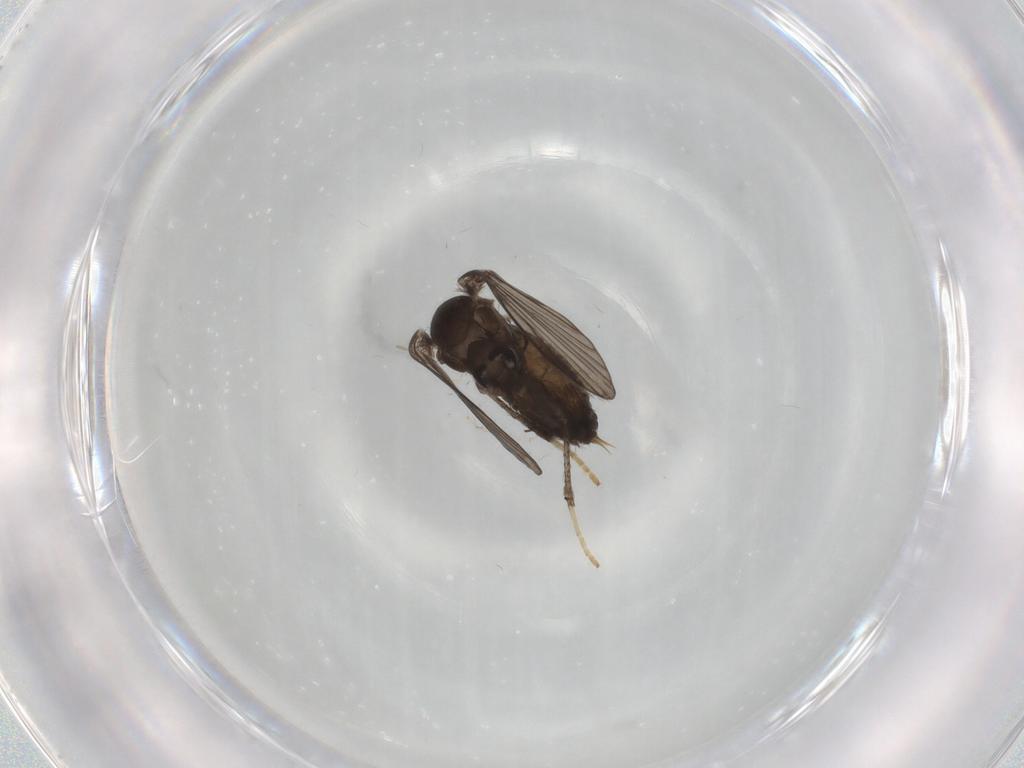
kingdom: Animalia
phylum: Arthropoda
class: Insecta
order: Diptera
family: Psychodidae
